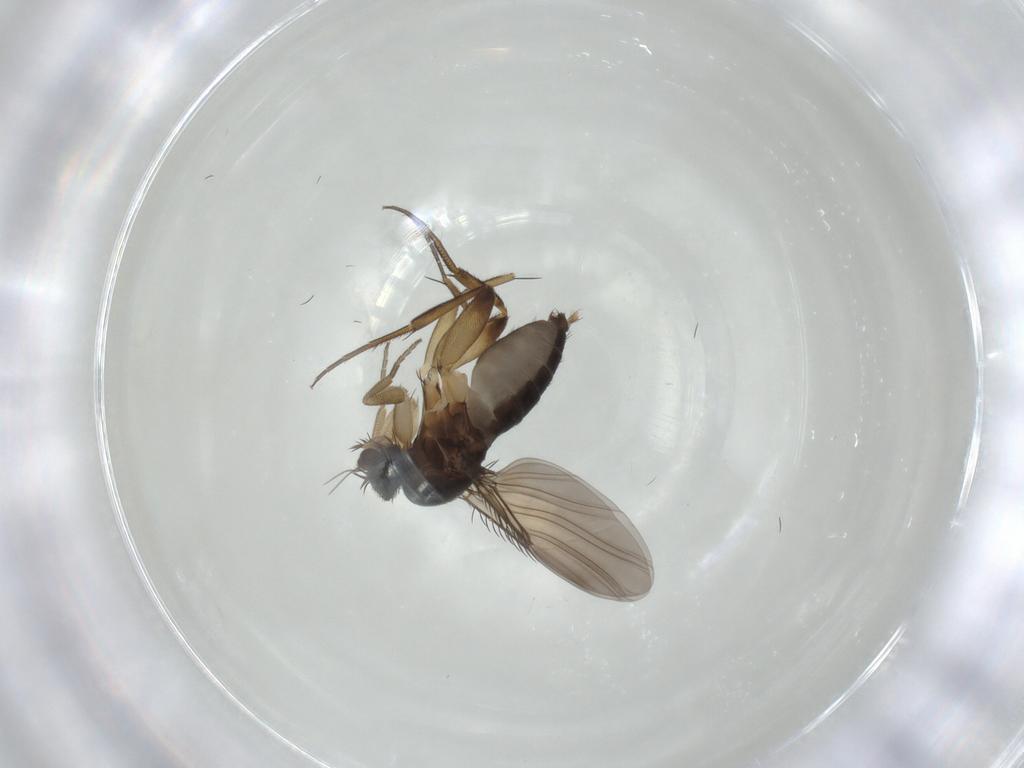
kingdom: Animalia
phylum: Arthropoda
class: Insecta
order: Diptera
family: Phoridae
